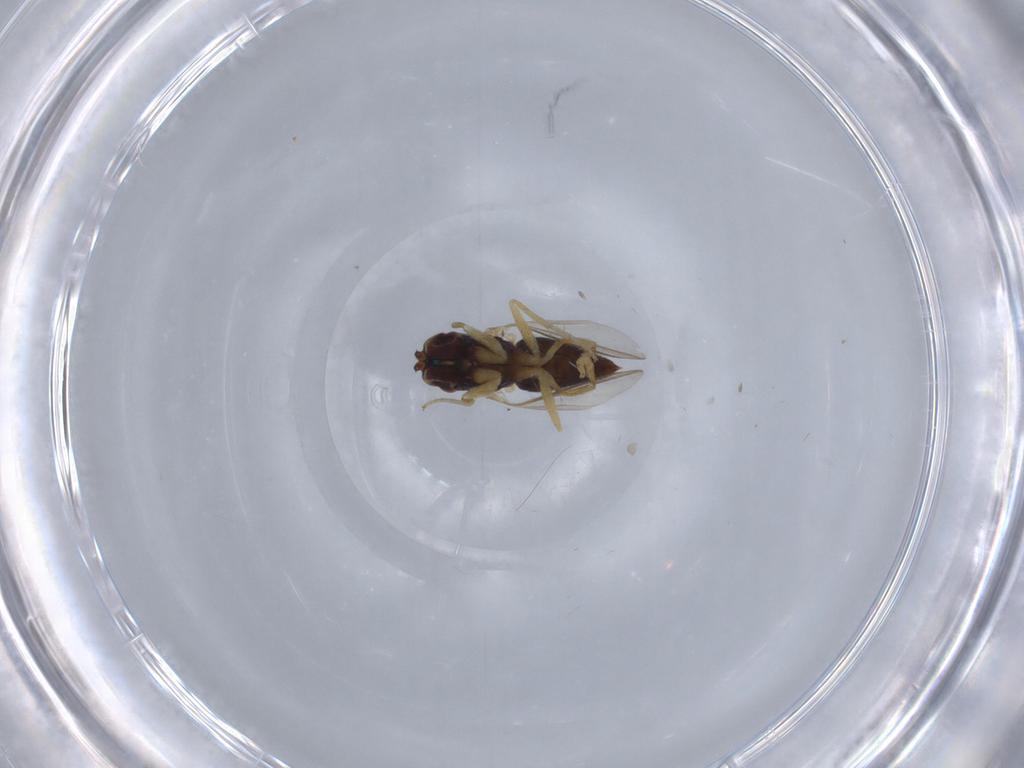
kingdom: Animalia
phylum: Arthropoda
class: Insecta
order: Diptera
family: Dolichopodidae
